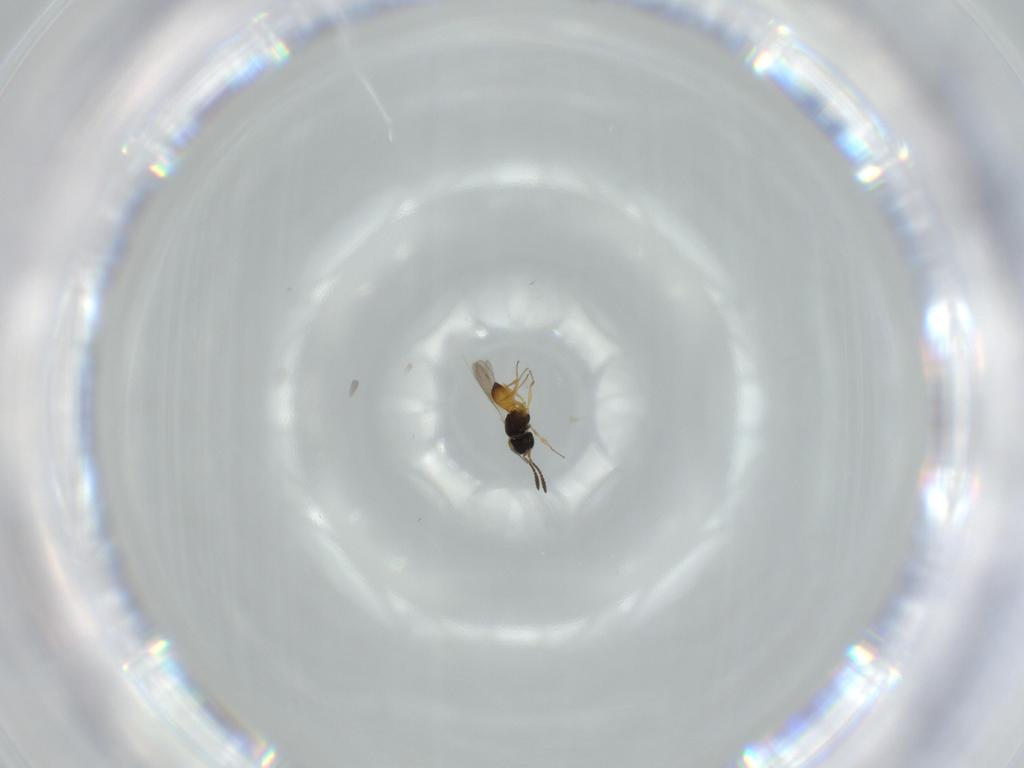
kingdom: Animalia
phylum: Arthropoda
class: Insecta
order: Hymenoptera
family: Scelionidae
